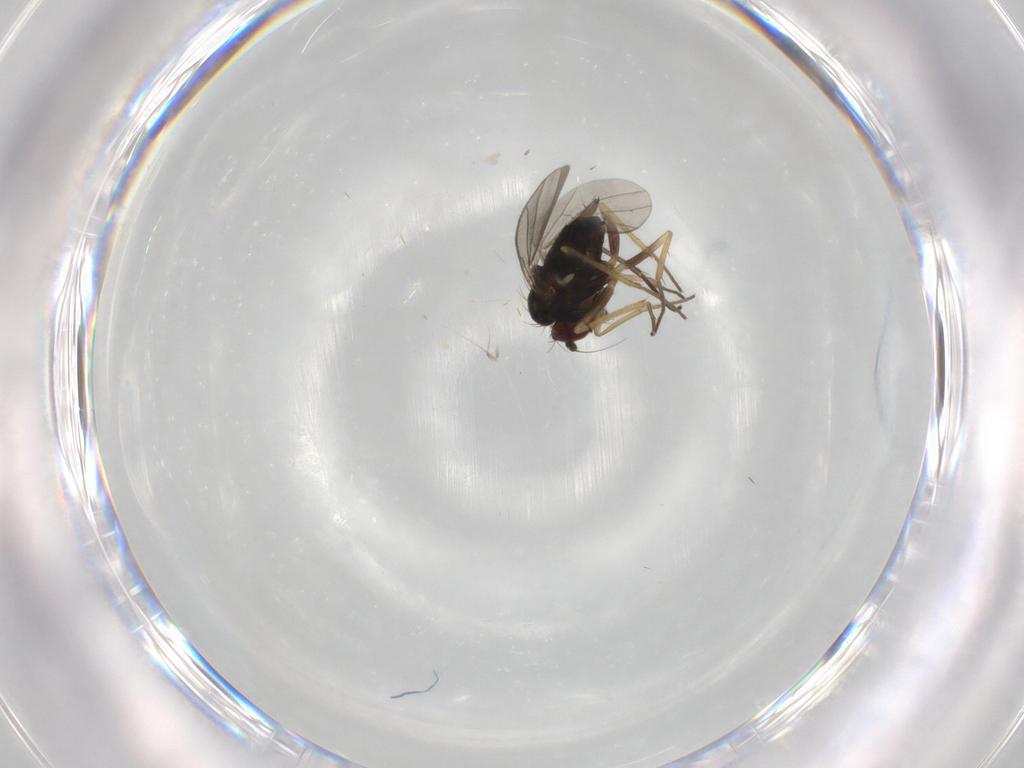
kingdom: Animalia
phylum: Arthropoda
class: Insecta
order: Diptera
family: Dolichopodidae
